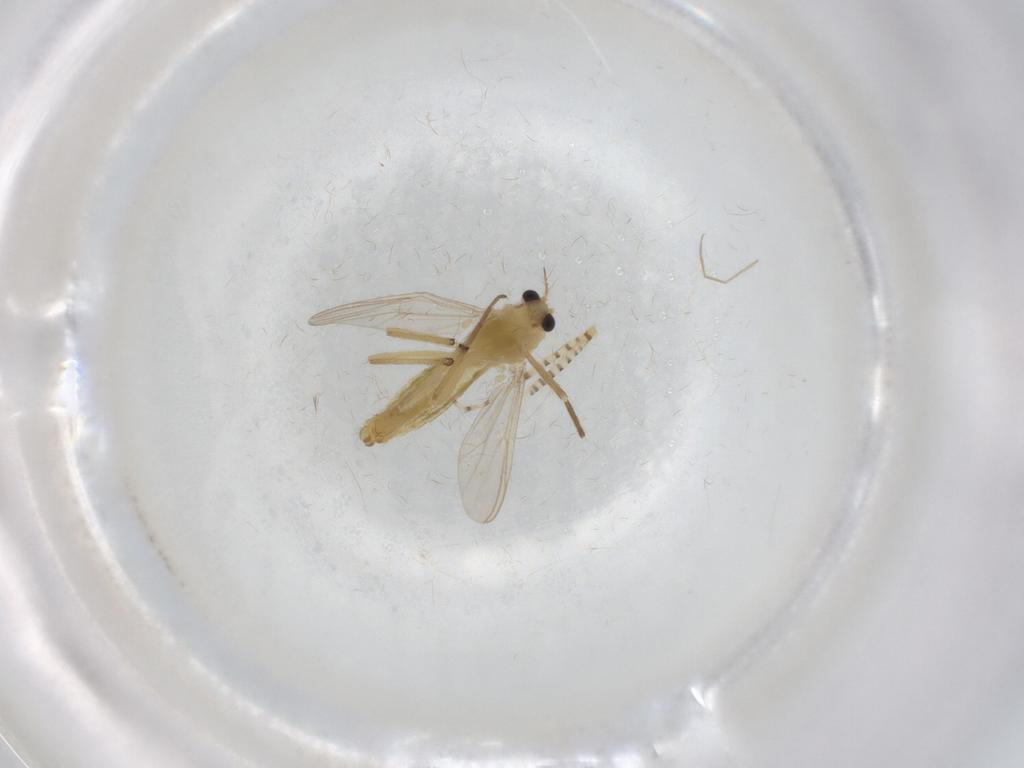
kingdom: Animalia
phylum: Arthropoda
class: Insecta
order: Diptera
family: Chironomidae
